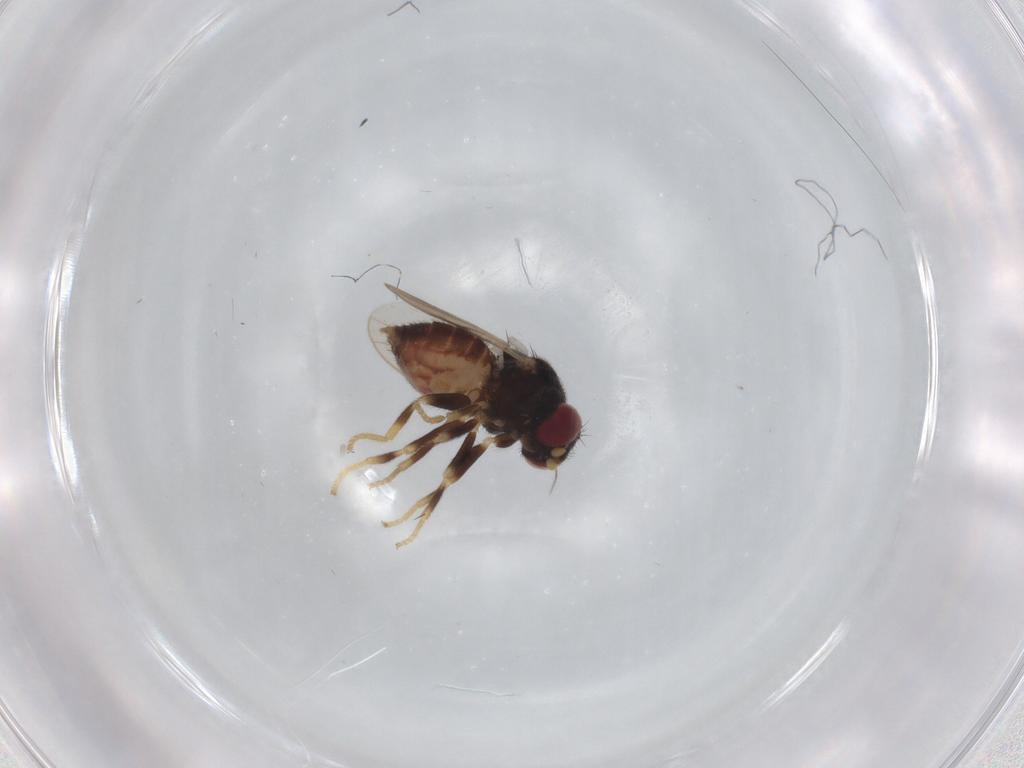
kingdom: Animalia
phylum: Arthropoda
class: Insecta
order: Diptera
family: Chloropidae
